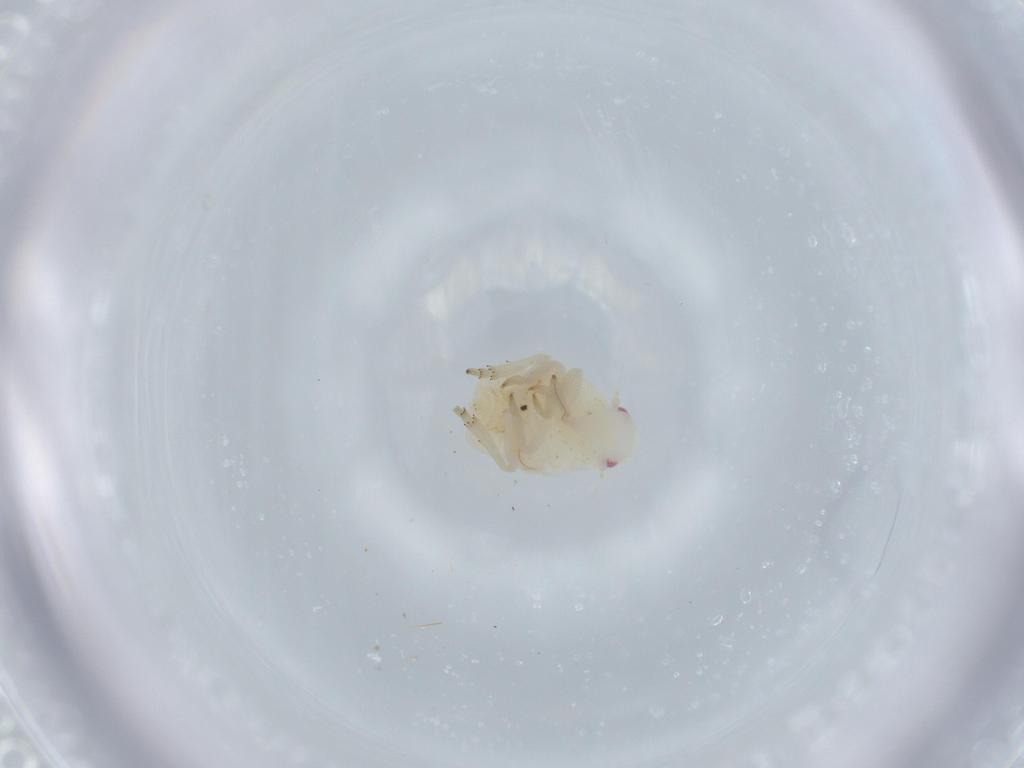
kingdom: Animalia
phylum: Arthropoda
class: Insecta
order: Hemiptera
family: Flatidae
